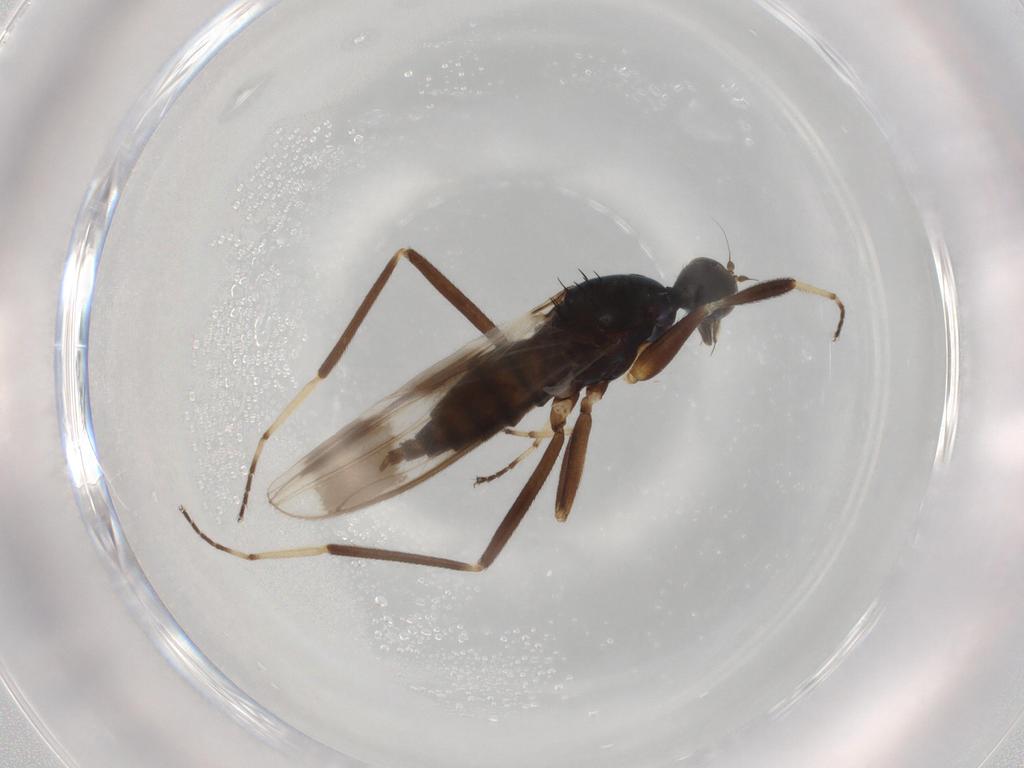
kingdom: Animalia
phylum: Arthropoda
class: Insecta
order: Diptera
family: Hybotidae
